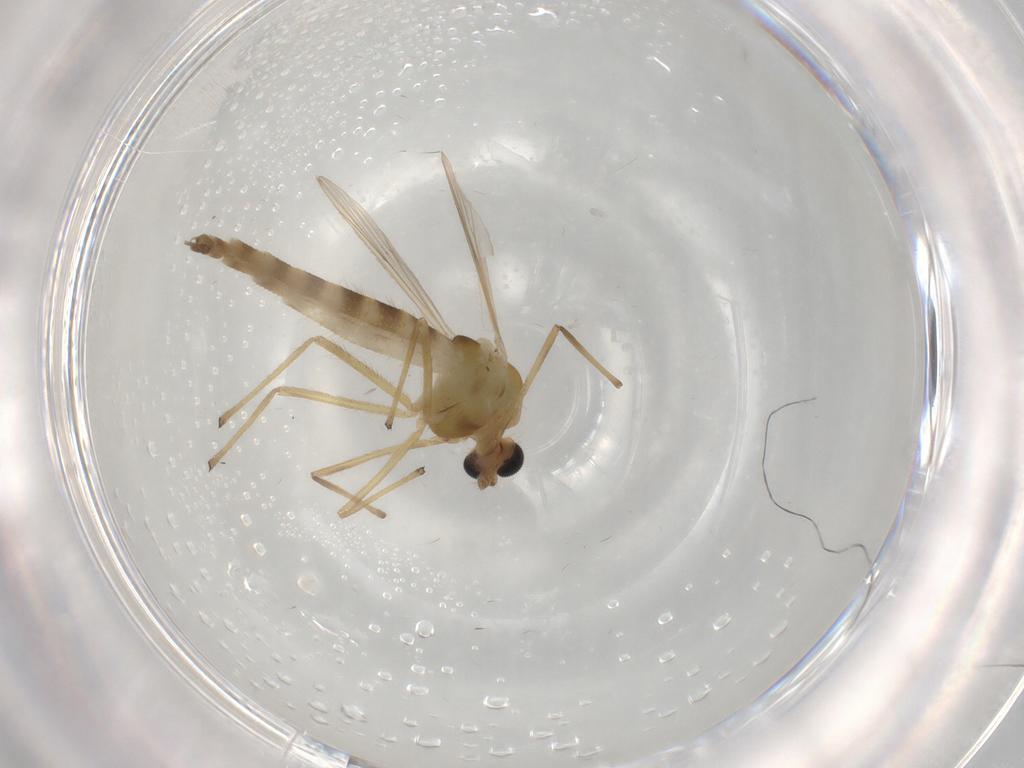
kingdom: Animalia
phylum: Arthropoda
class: Insecta
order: Diptera
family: Chironomidae
